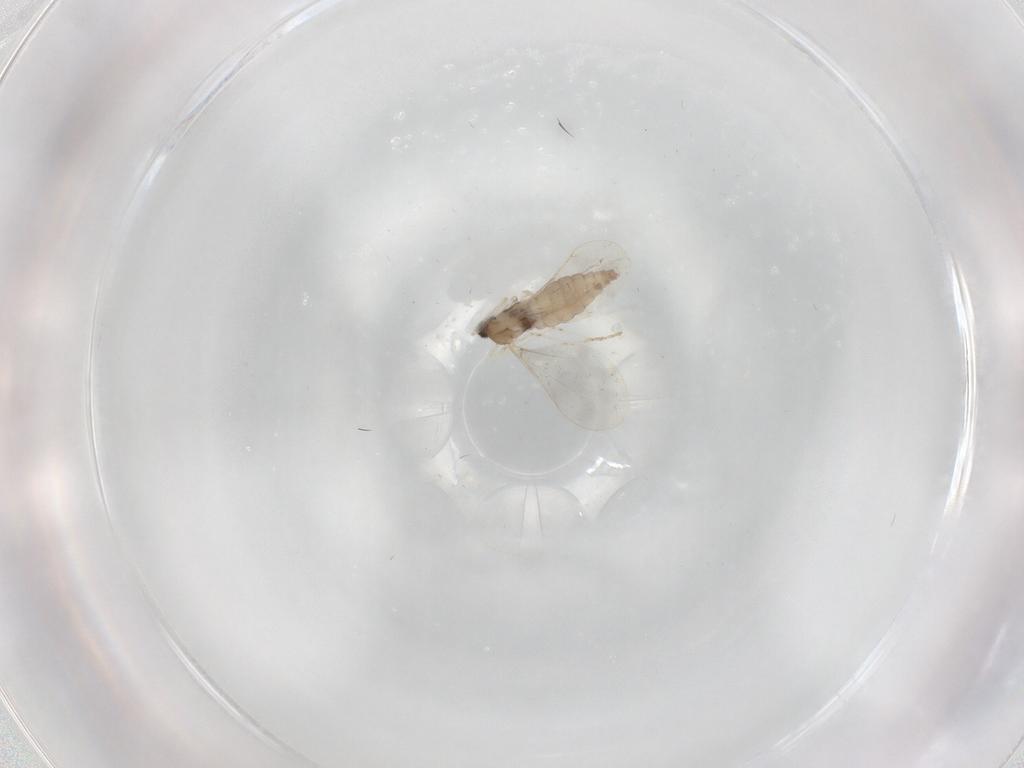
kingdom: Animalia
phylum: Arthropoda
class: Insecta
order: Diptera
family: Cecidomyiidae
